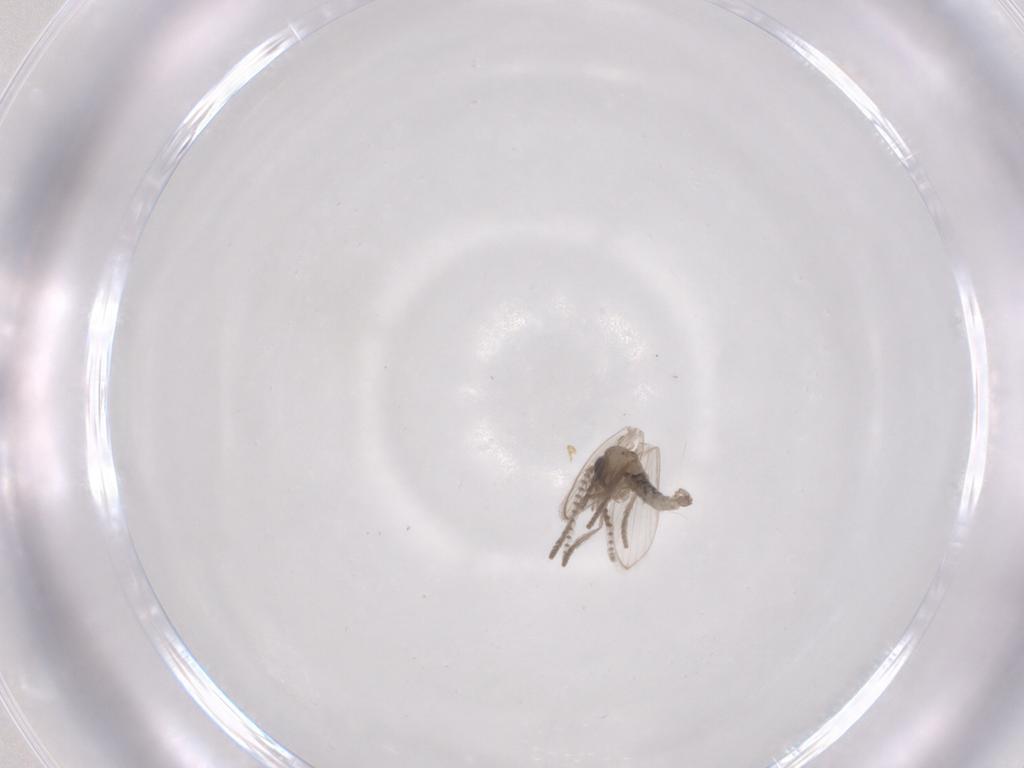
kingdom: Animalia
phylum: Arthropoda
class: Insecta
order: Diptera
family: Psychodidae
